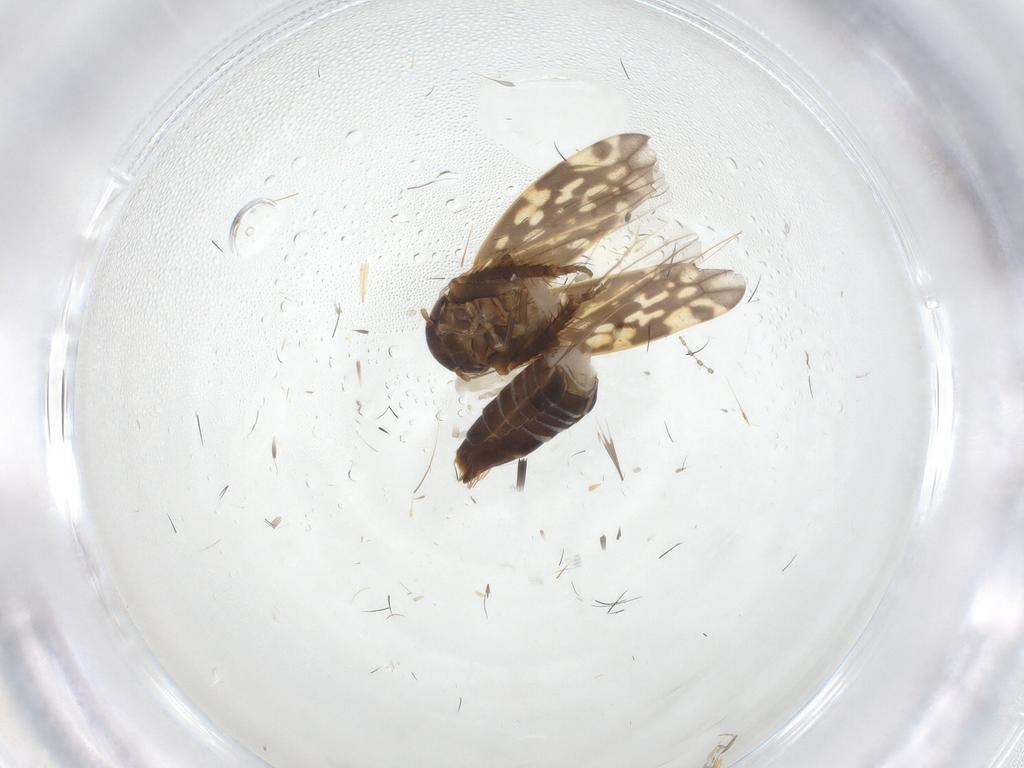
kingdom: Animalia
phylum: Arthropoda
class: Insecta
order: Hemiptera
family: Cicadellidae
